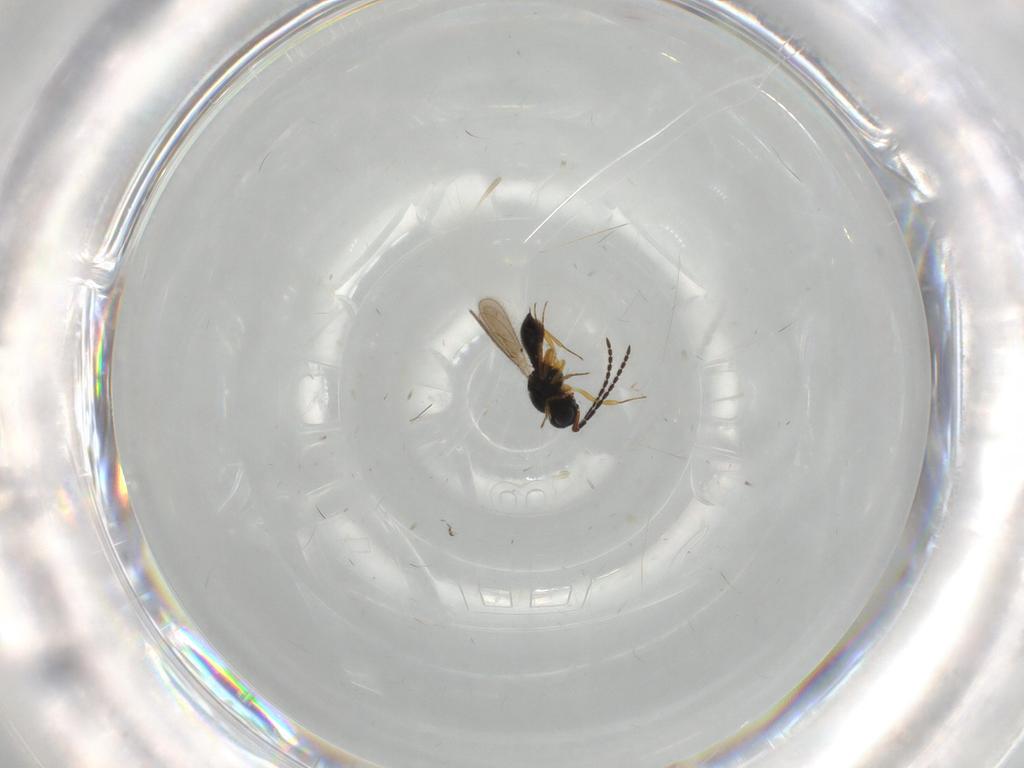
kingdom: Animalia
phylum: Arthropoda
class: Insecta
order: Hymenoptera
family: Scelionidae
